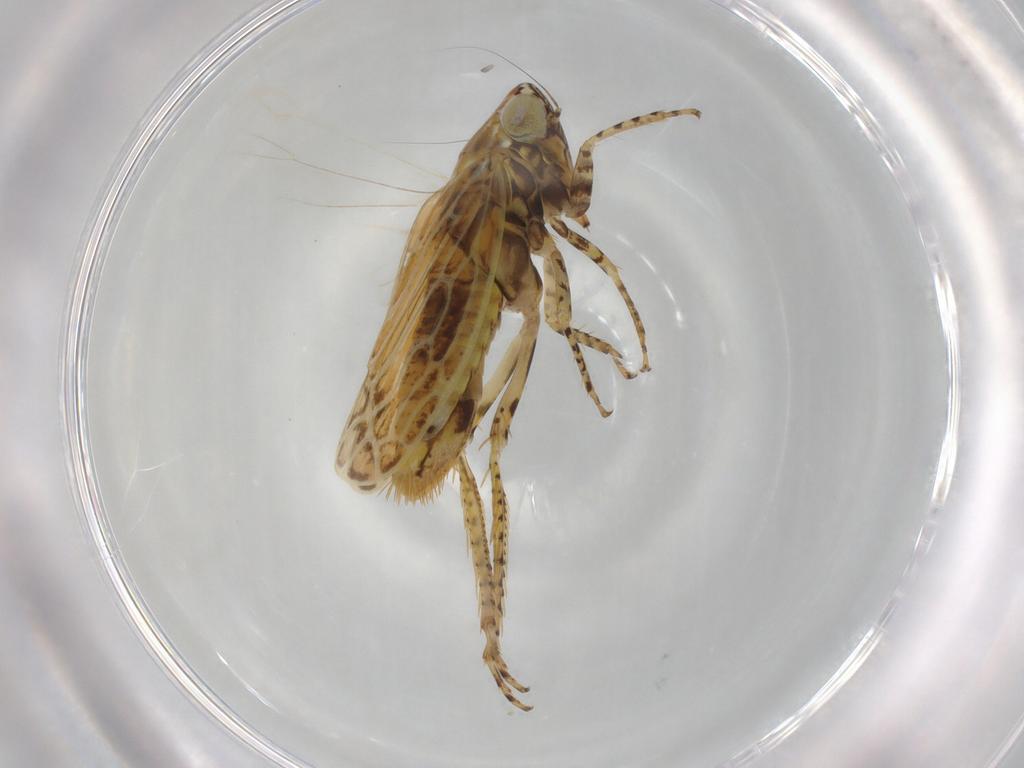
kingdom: Animalia
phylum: Arthropoda
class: Insecta
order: Hemiptera
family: Cicadellidae
